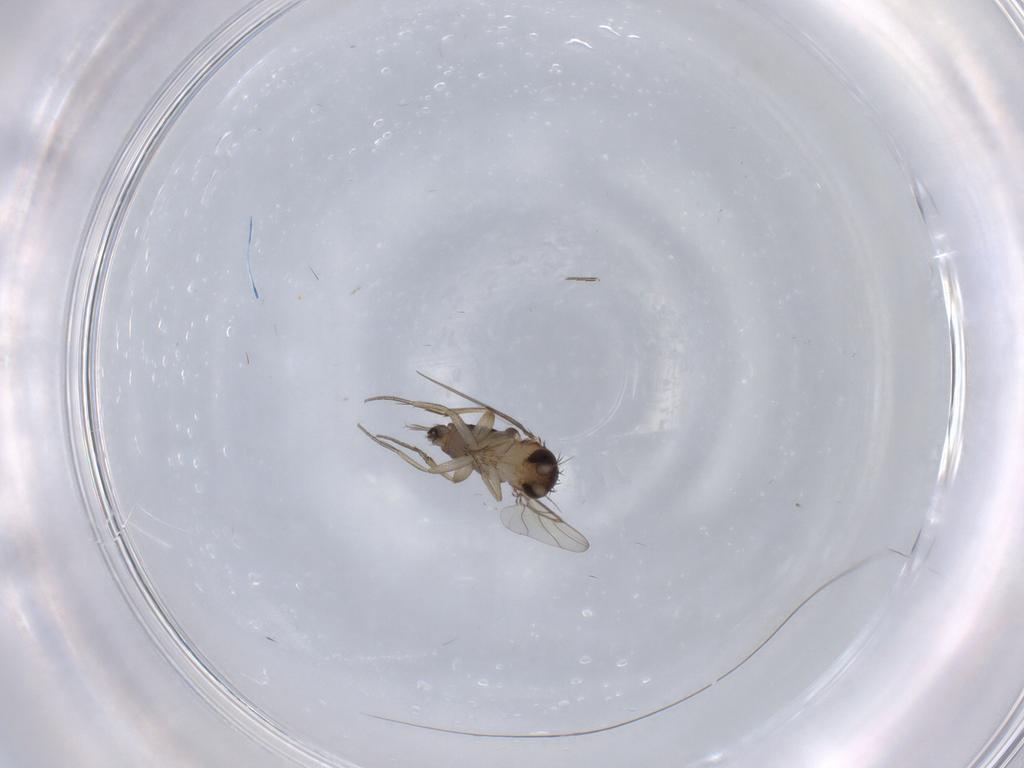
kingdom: Animalia
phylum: Arthropoda
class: Insecta
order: Diptera
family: Phoridae
